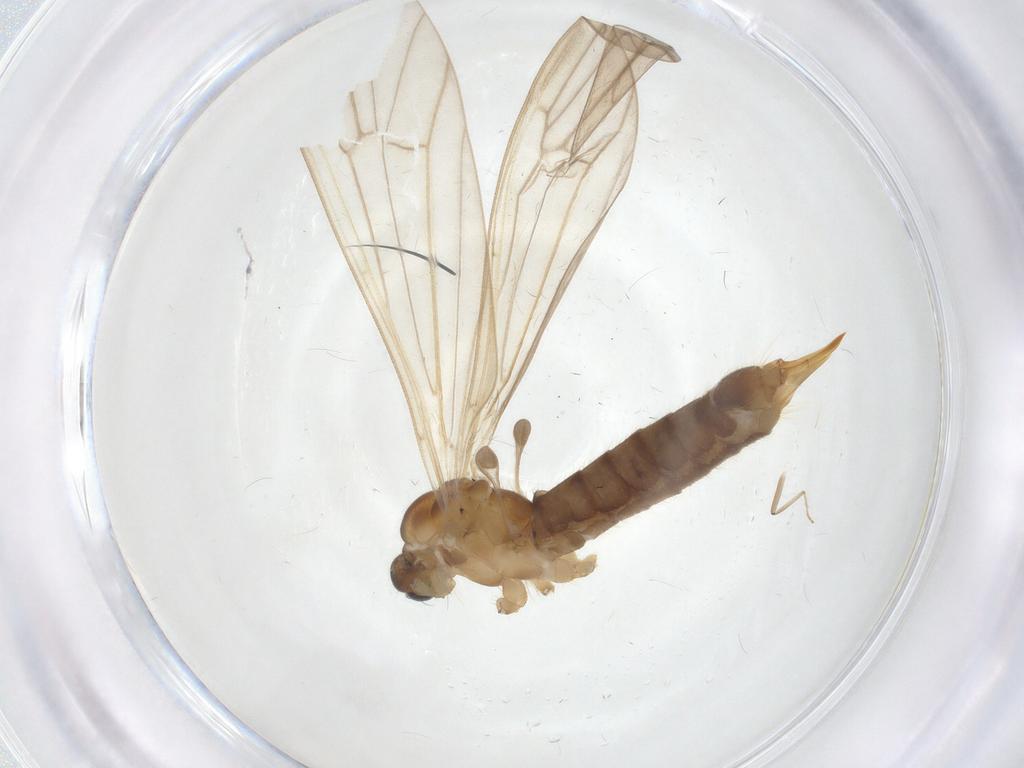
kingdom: Animalia
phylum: Arthropoda
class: Insecta
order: Diptera
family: Limoniidae
